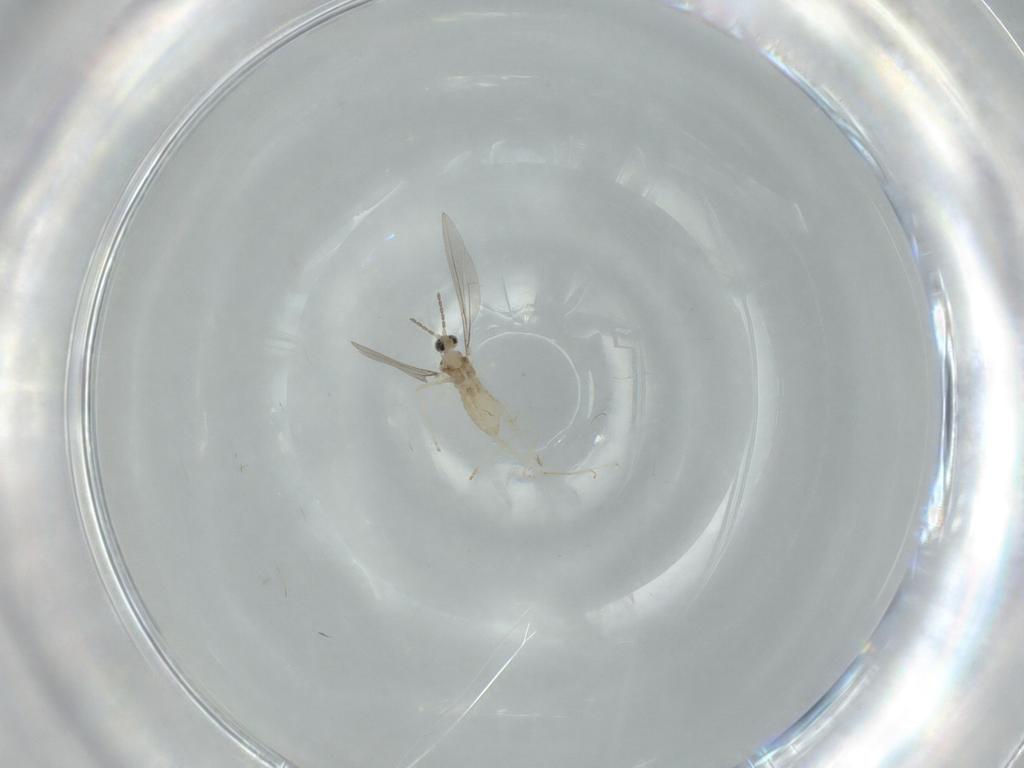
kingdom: Animalia
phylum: Arthropoda
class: Insecta
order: Diptera
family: Cecidomyiidae
